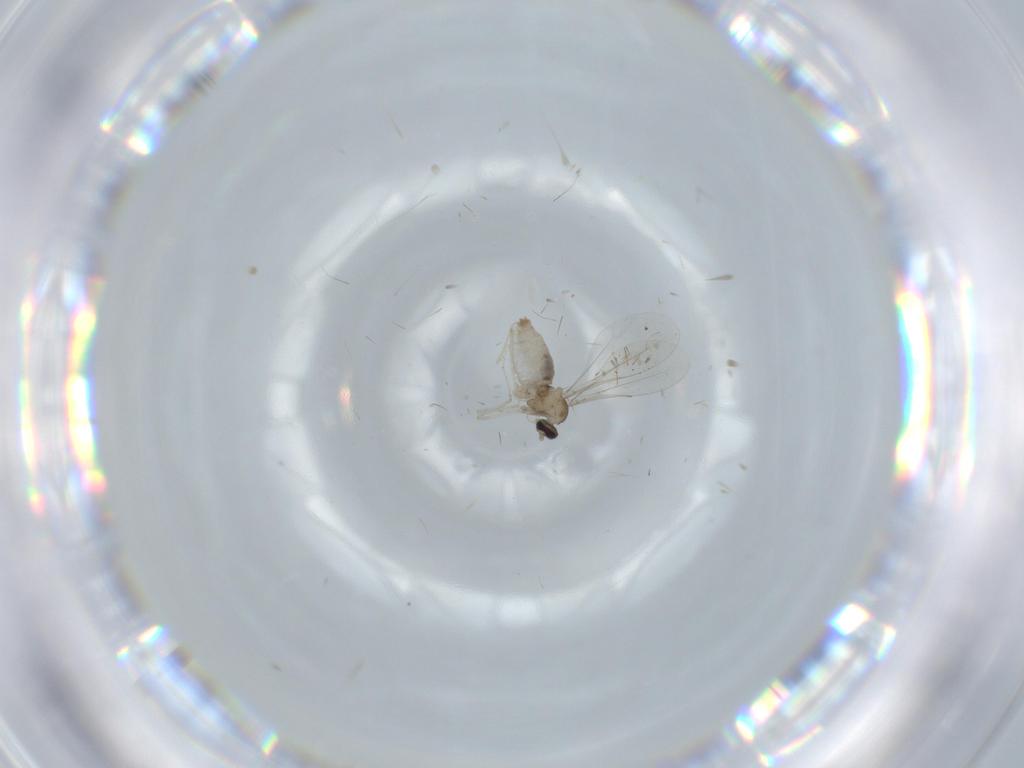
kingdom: Animalia
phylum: Arthropoda
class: Insecta
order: Diptera
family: Cecidomyiidae
